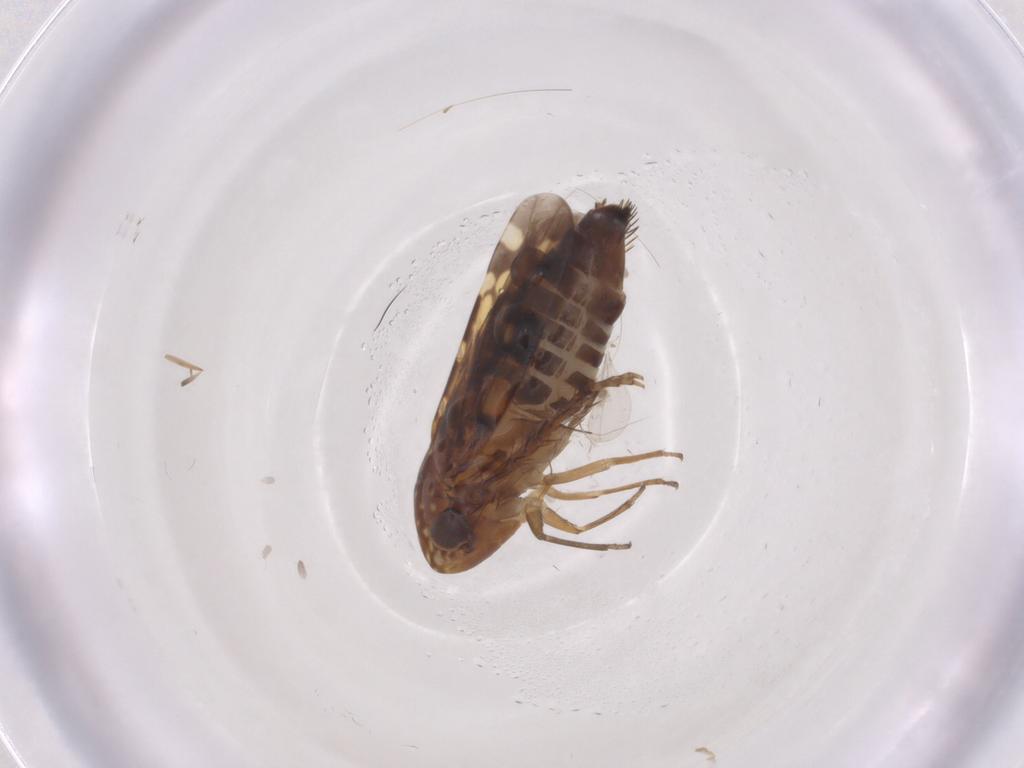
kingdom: Animalia
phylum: Arthropoda
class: Insecta
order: Hemiptera
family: Cicadellidae
